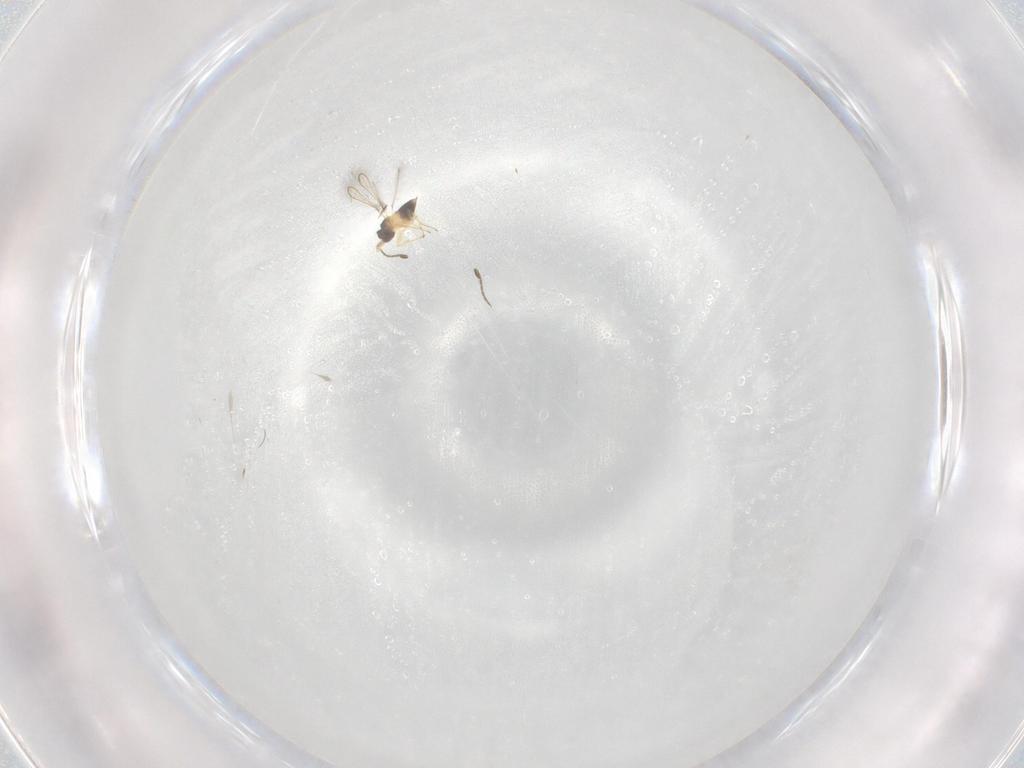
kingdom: Animalia
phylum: Arthropoda
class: Insecta
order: Hymenoptera
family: Mymaridae
